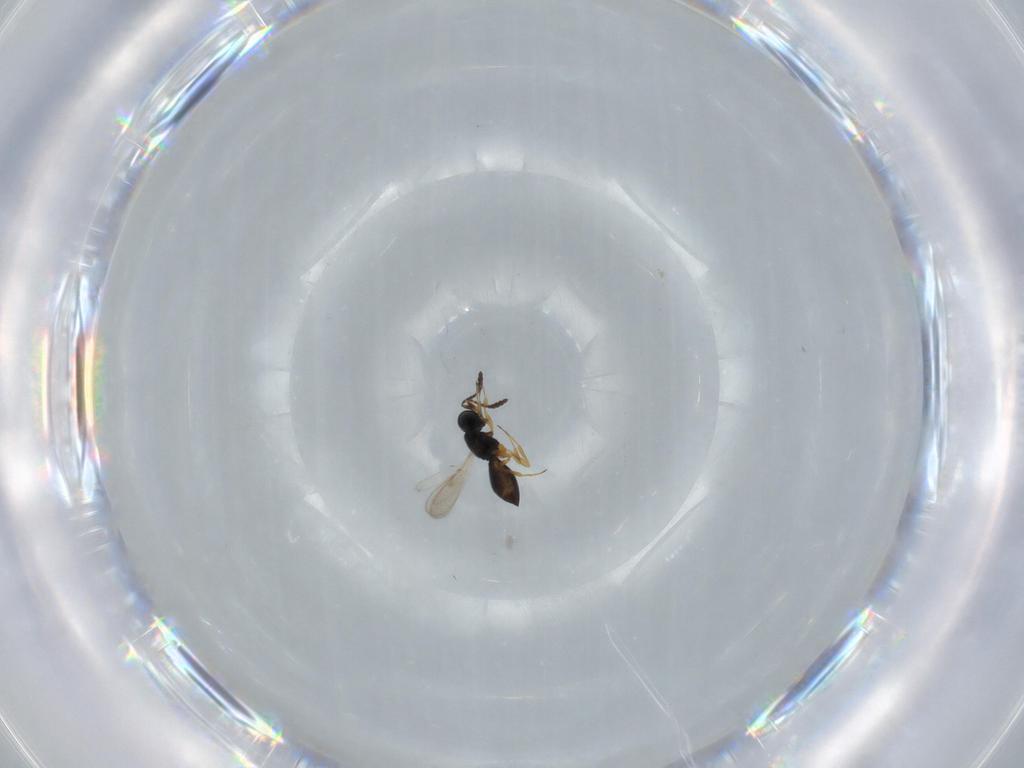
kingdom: Animalia
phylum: Arthropoda
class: Insecta
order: Hymenoptera
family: Scelionidae
